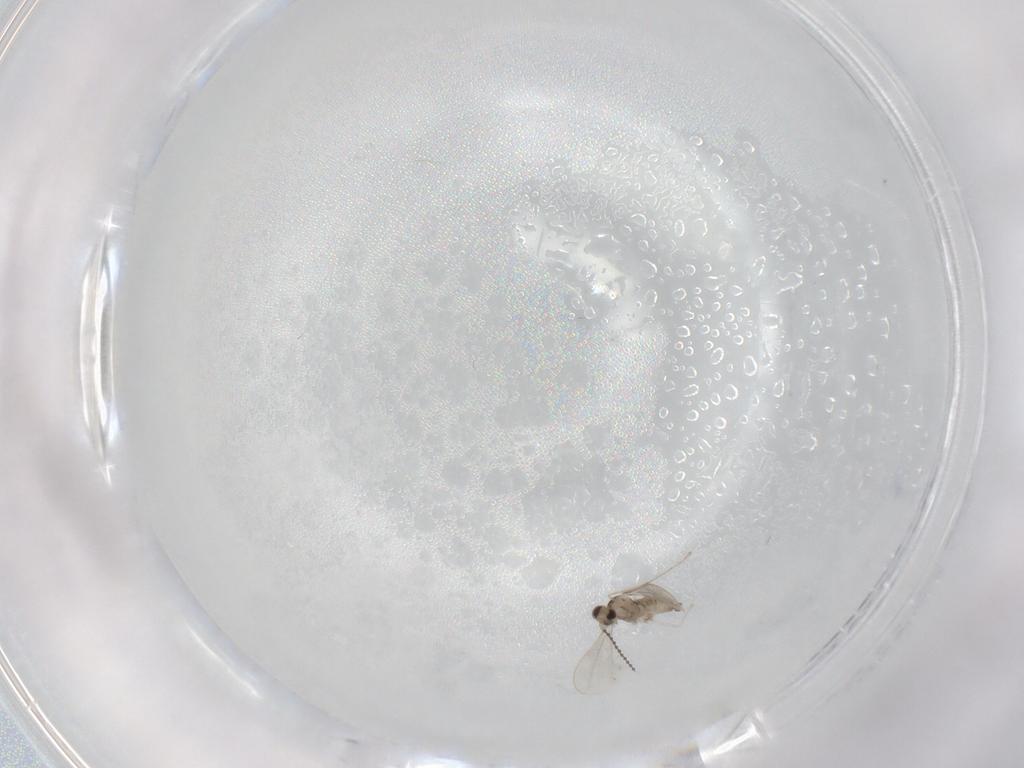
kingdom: Animalia
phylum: Arthropoda
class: Insecta
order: Diptera
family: Cecidomyiidae
